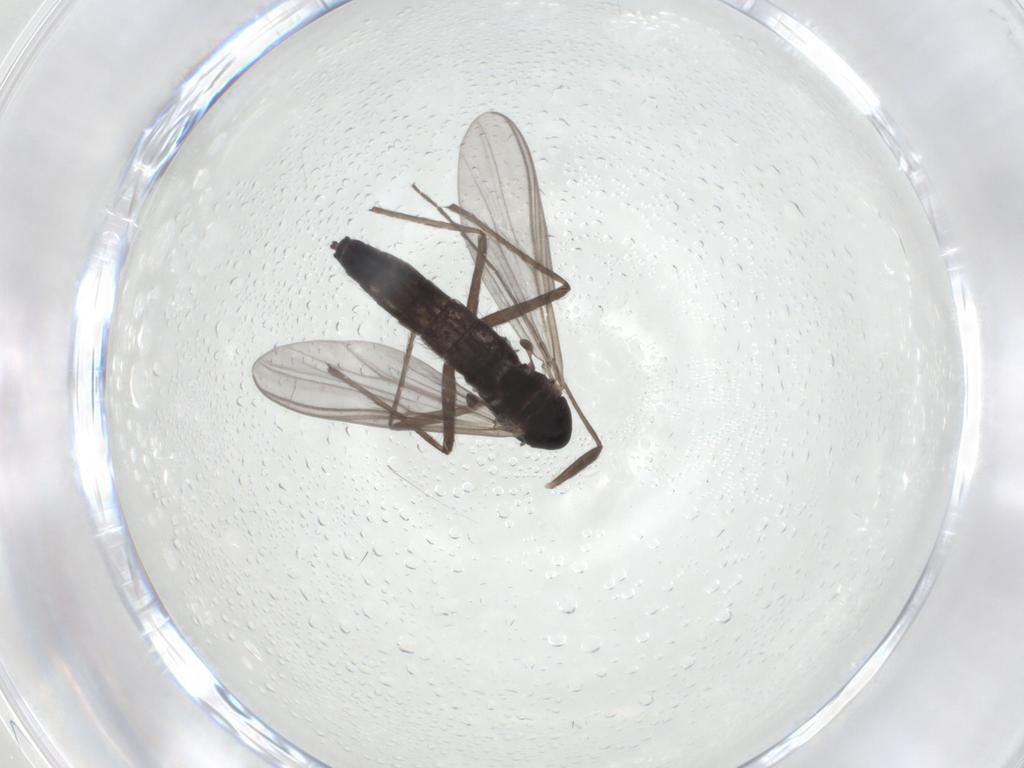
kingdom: Animalia
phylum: Arthropoda
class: Insecta
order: Diptera
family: Chironomidae
